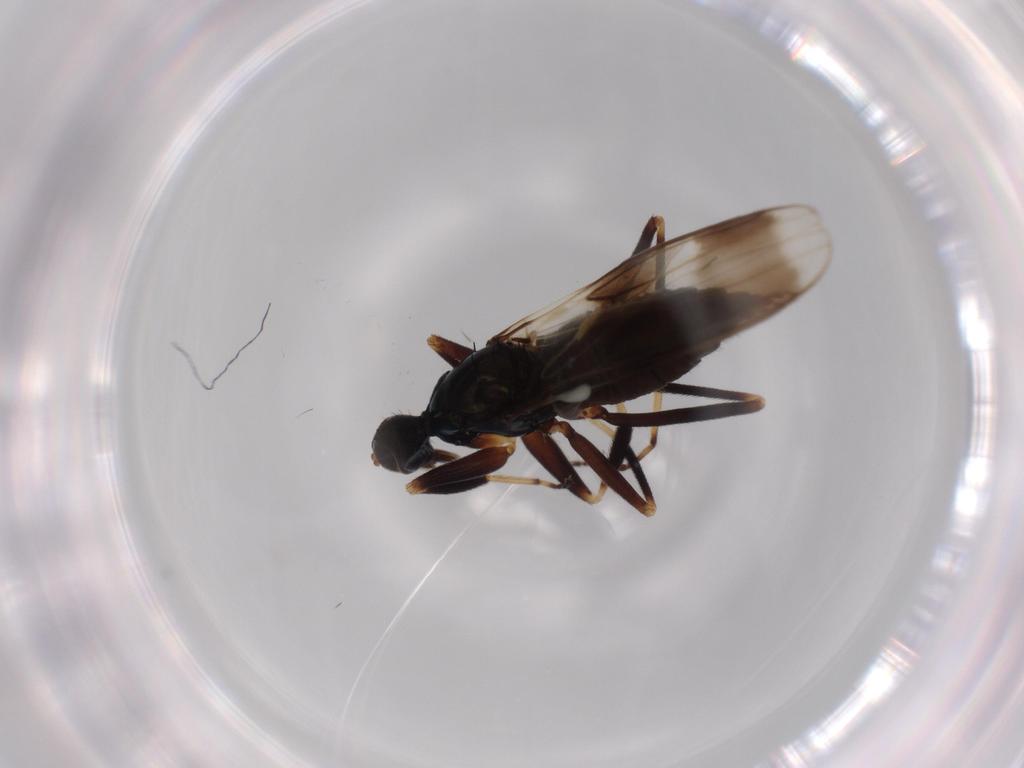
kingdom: Animalia
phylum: Arthropoda
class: Insecta
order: Diptera
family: Hybotidae
